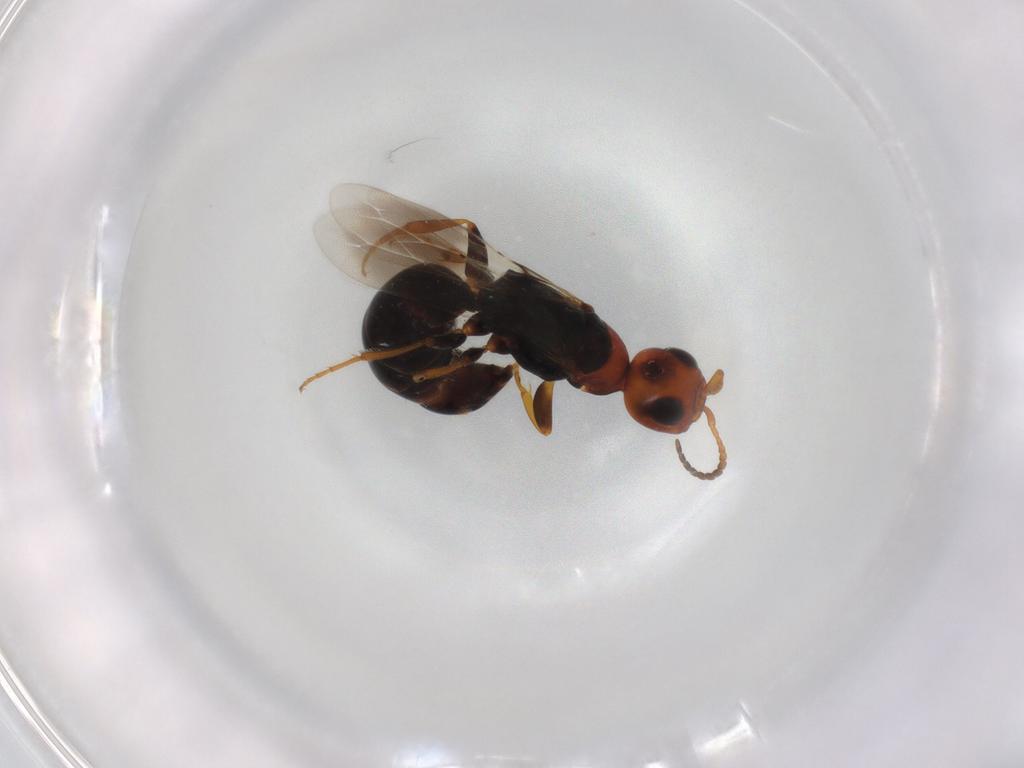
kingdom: Animalia
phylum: Arthropoda
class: Insecta
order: Hymenoptera
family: Bethylidae
